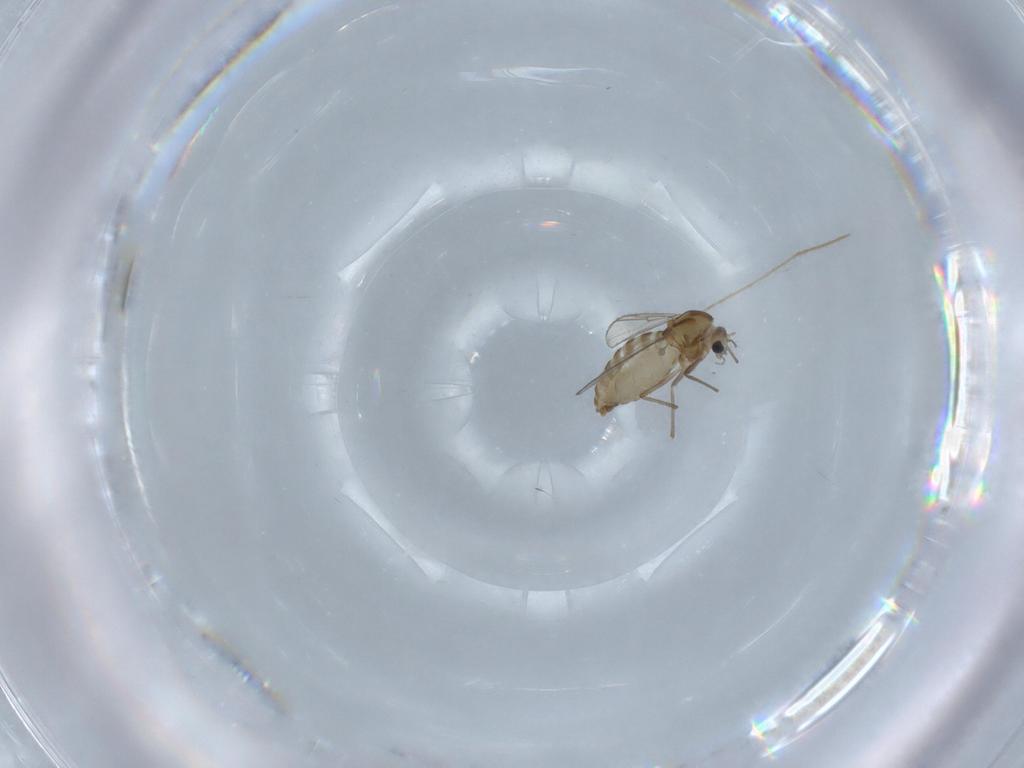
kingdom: Animalia
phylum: Arthropoda
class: Insecta
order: Diptera
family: Chironomidae
